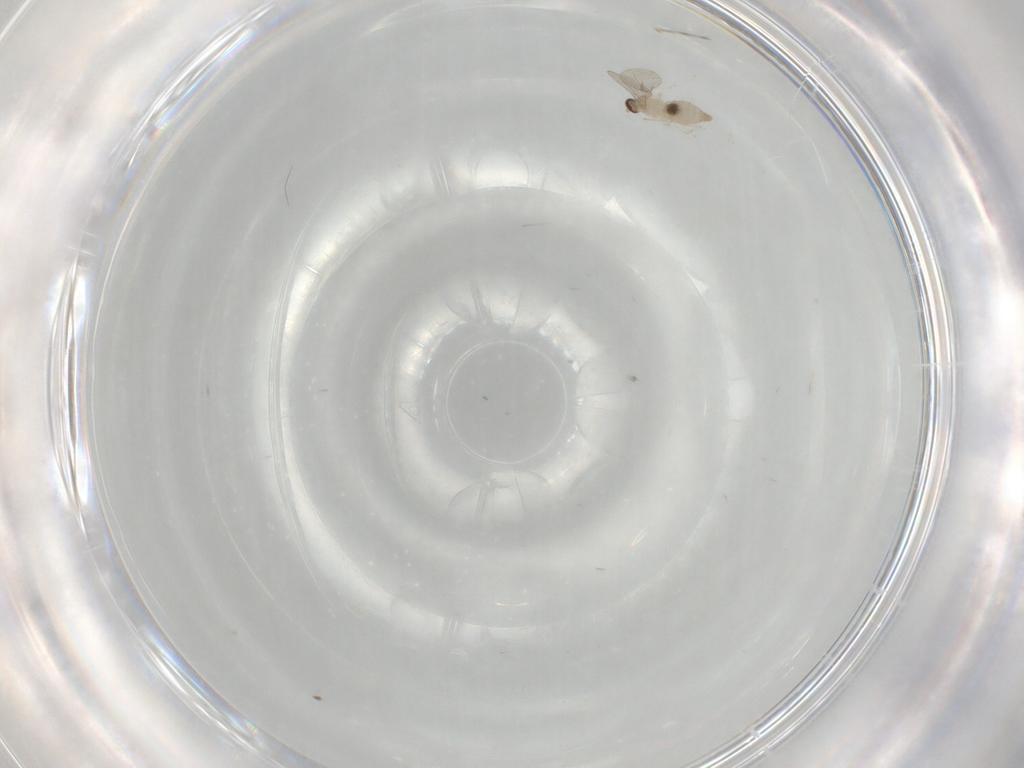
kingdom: Animalia
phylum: Arthropoda
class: Insecta
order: Diptera
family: Cecidomyiidae
